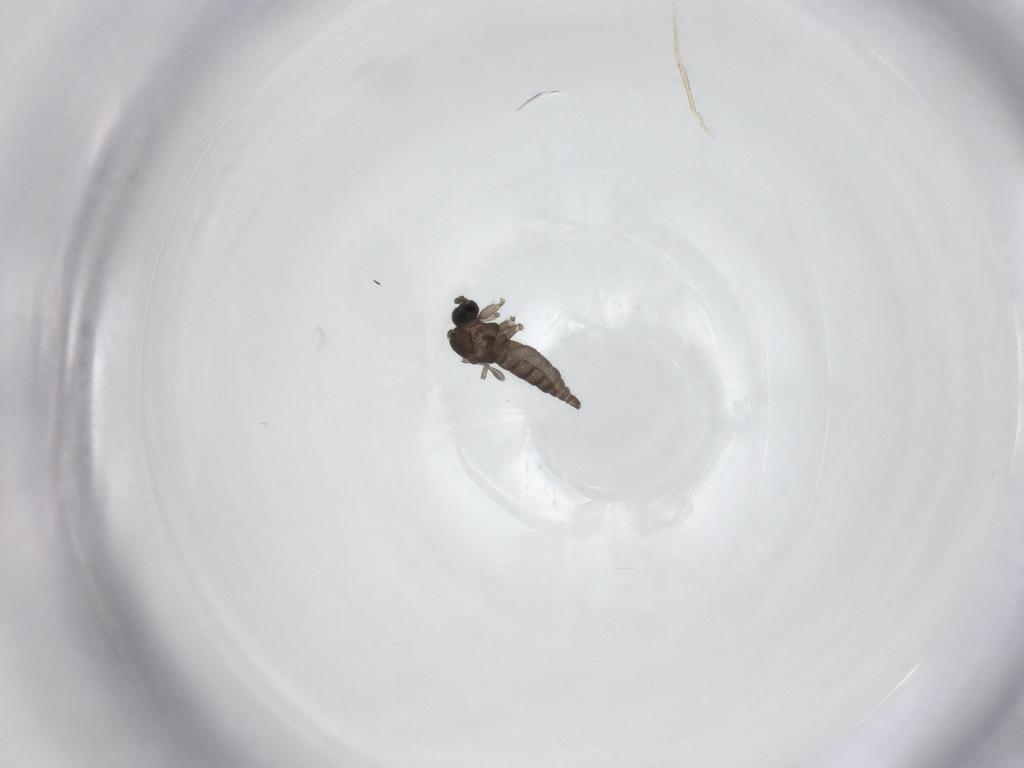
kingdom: Animalia
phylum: Arthropoda
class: Insecta
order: Diptera
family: Sciaridae
